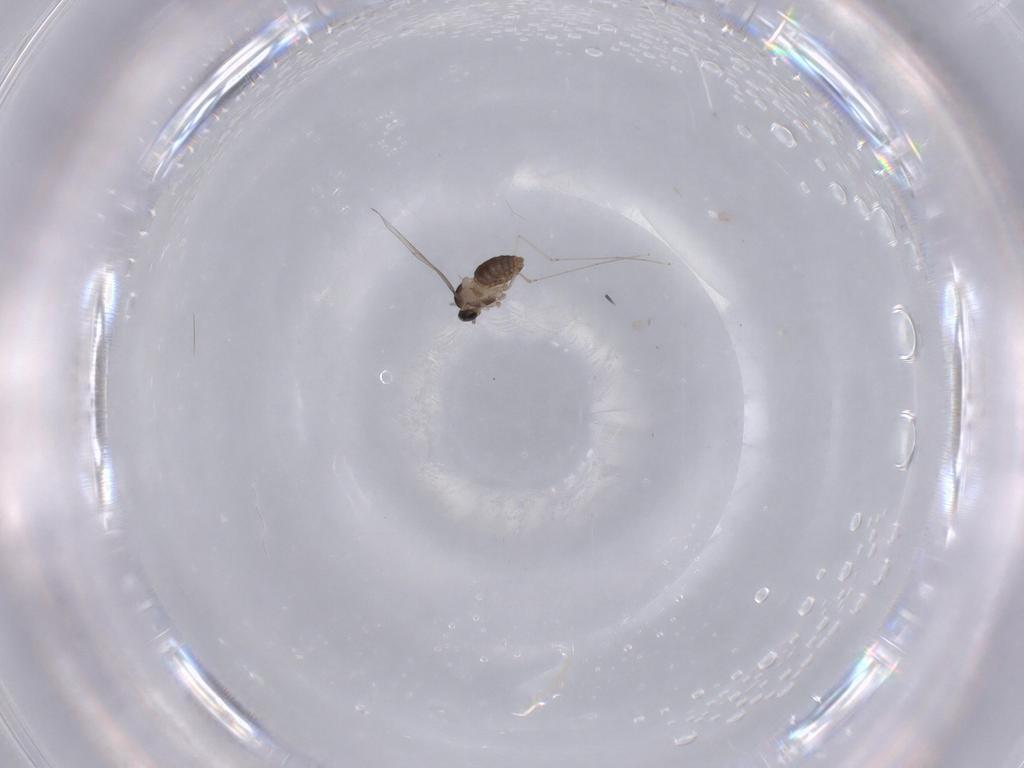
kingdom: Animalia
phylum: Arthropoda
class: Insecta
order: Diptera
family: Cecidomyiidae
